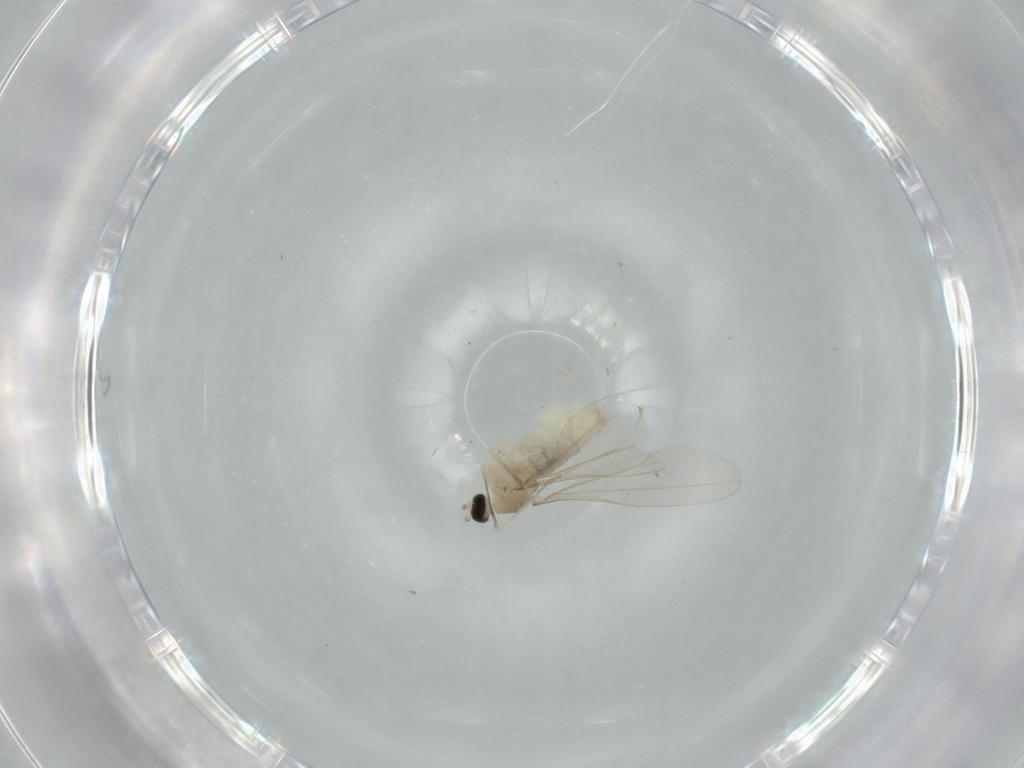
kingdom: Animalia
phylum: Arthropoda
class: Insecta
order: Diptera
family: Cecidomyiidae
